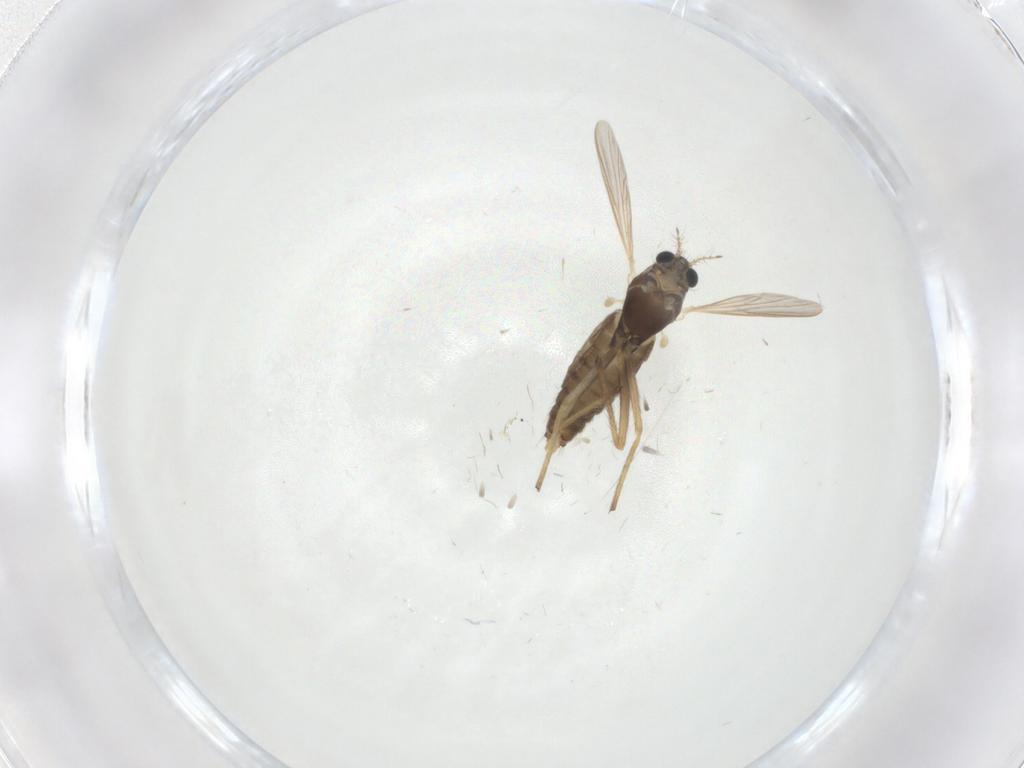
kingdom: Animalia
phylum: Arthropoda
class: Insecta
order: Diptera
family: Chironomidae
